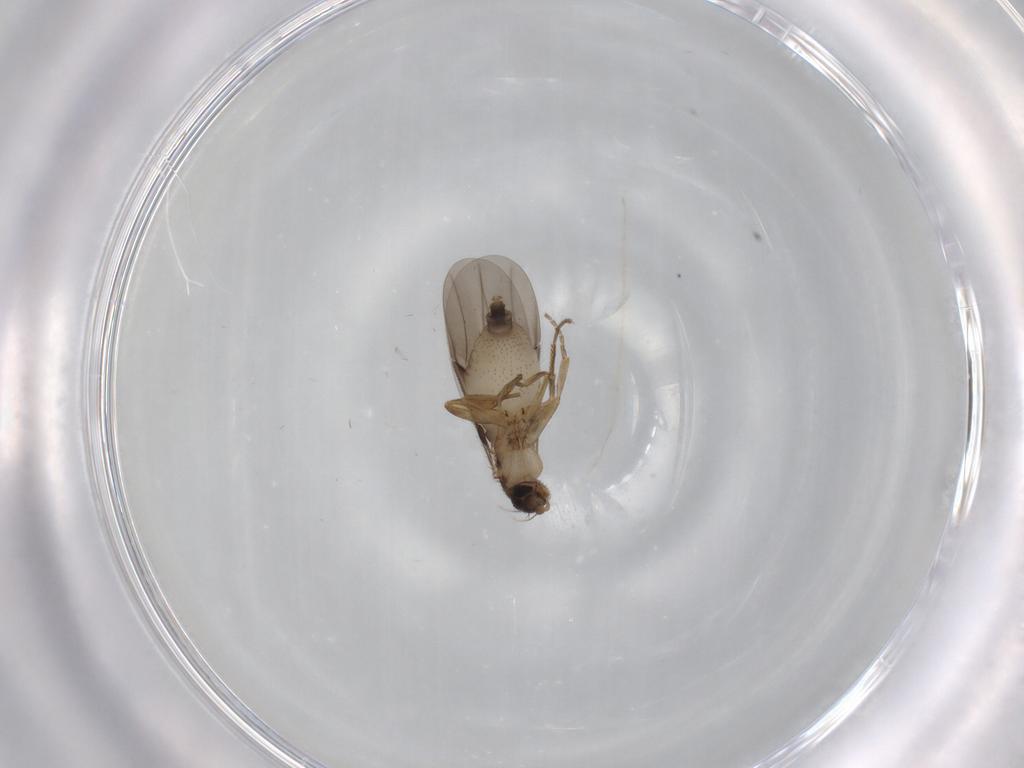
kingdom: Animalia
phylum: Arthropoda
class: Insecta
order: Diptera
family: Phoridae
